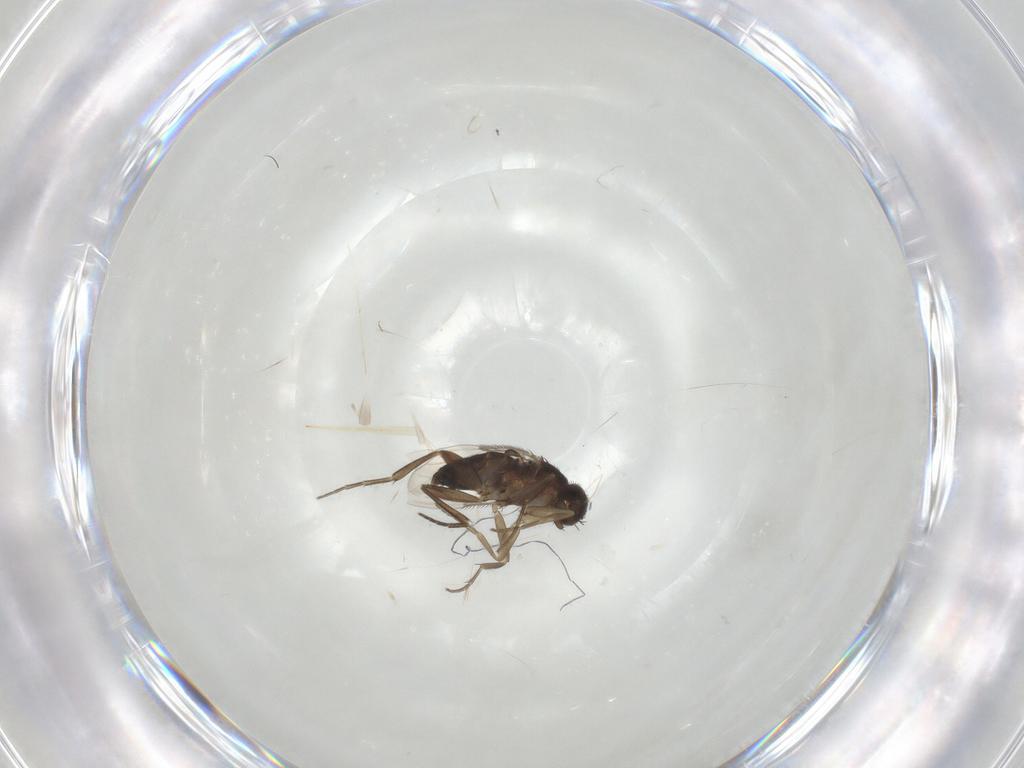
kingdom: Animalia
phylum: Arthropoda
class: Insecta
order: Diptera
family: Phoridae
